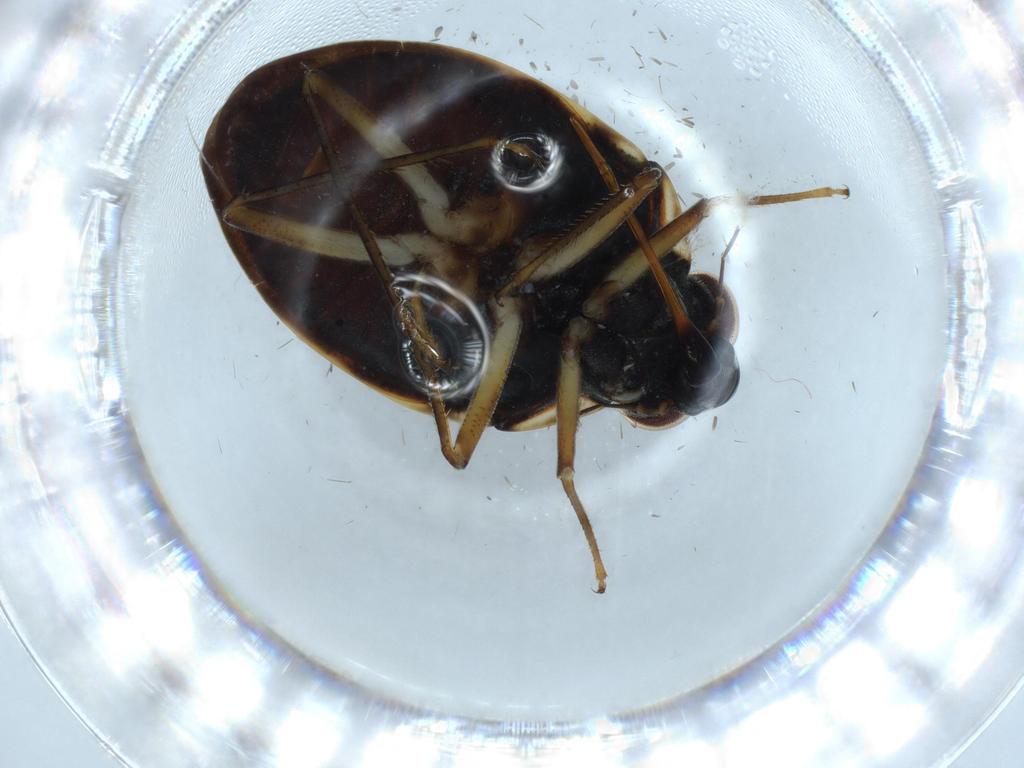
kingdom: Animalia
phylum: Arthropoda
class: Insecta
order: Hemiptera
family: Ochteridae
